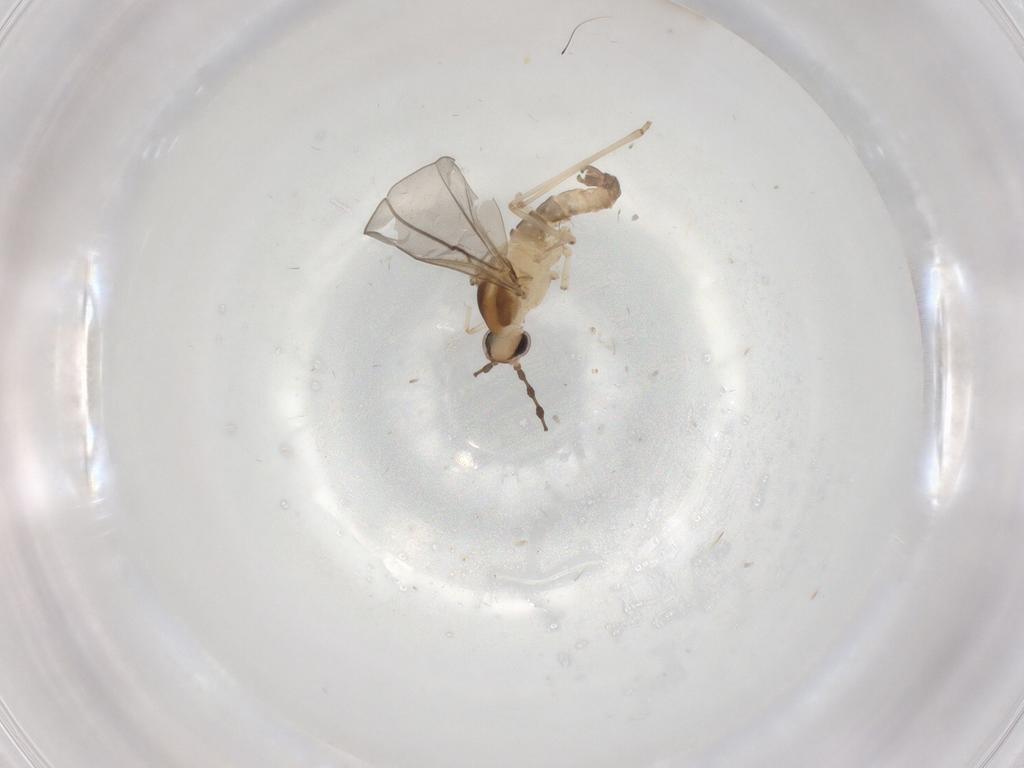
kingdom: Animalia
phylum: Arthropoda
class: Insecta
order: Diptera
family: Cecidomyiidae
